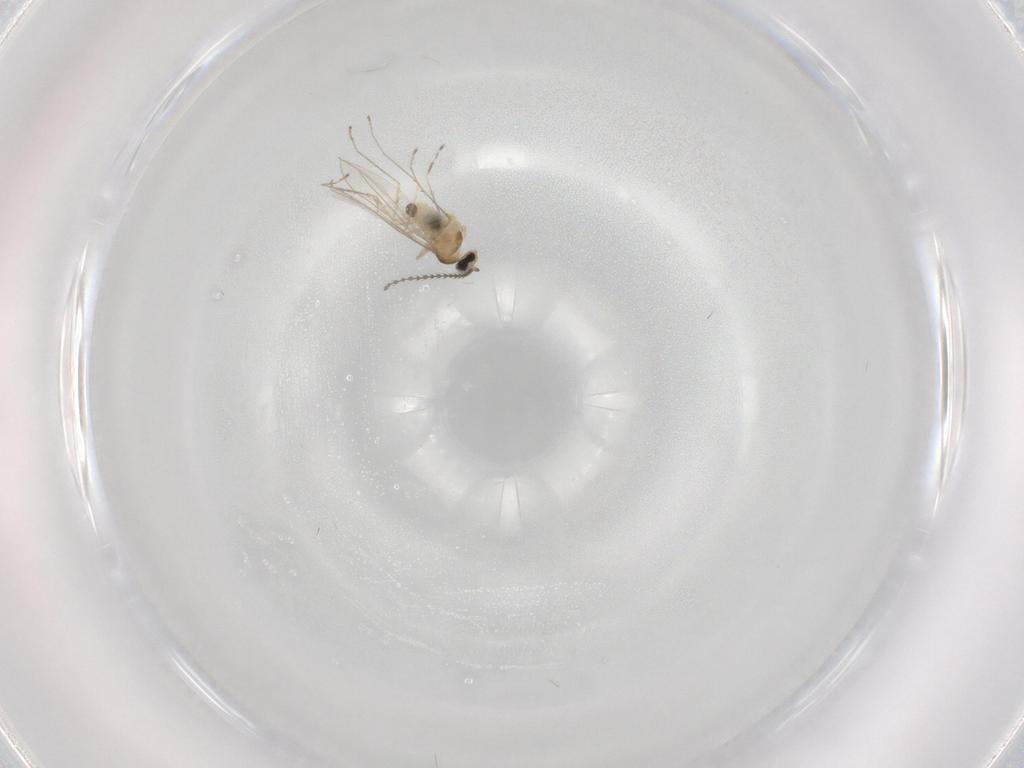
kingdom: Animalia
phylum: Arthropoda
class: Insecta
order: Diptera
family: Cecidomyiidae
